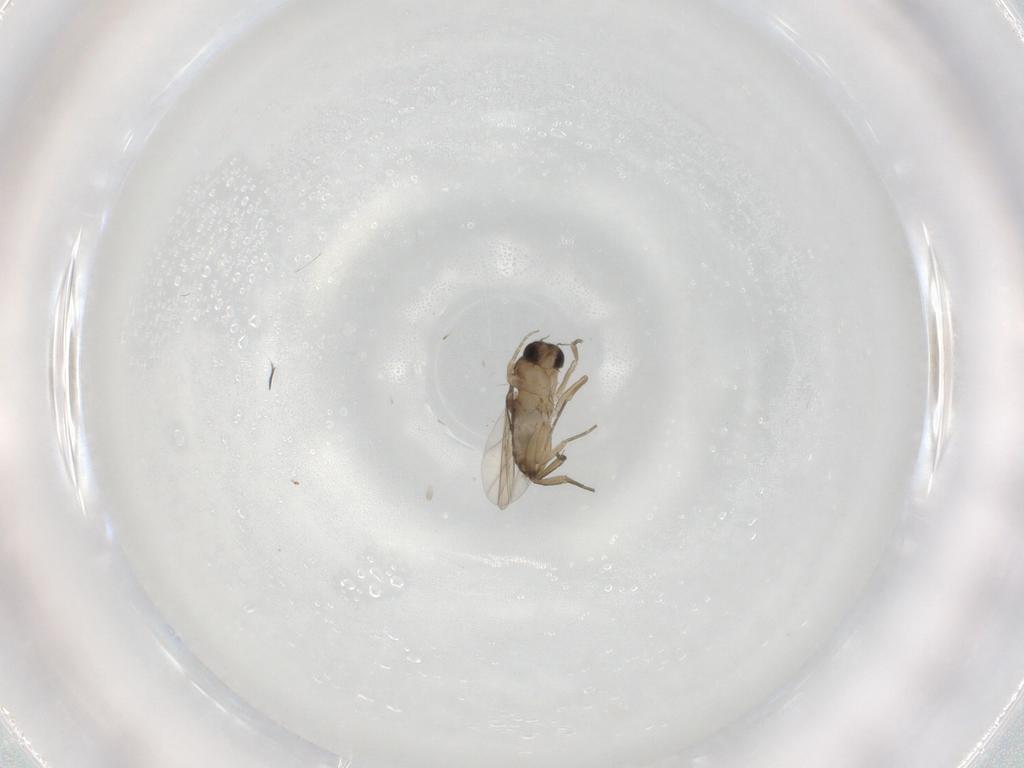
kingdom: Animalia
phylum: Arthropoda
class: Insecta
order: Diptera
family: Phoridae
